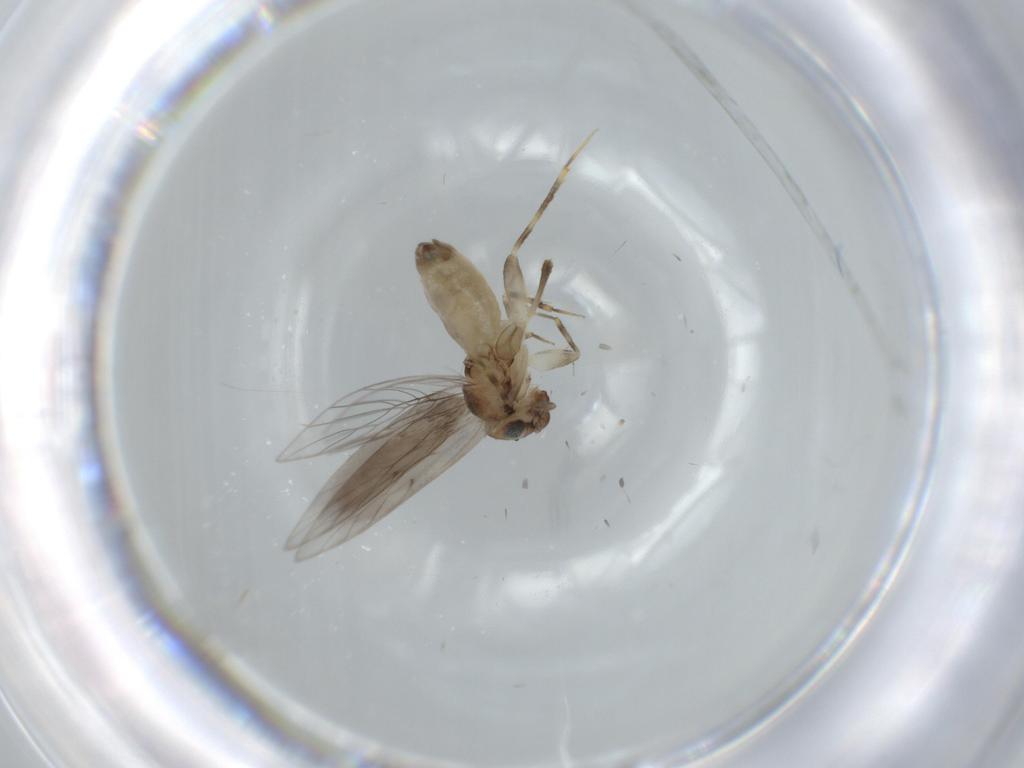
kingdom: Animalia
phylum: Arthropoda
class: Insecta
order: Psocodea
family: Lepidopsocidae
